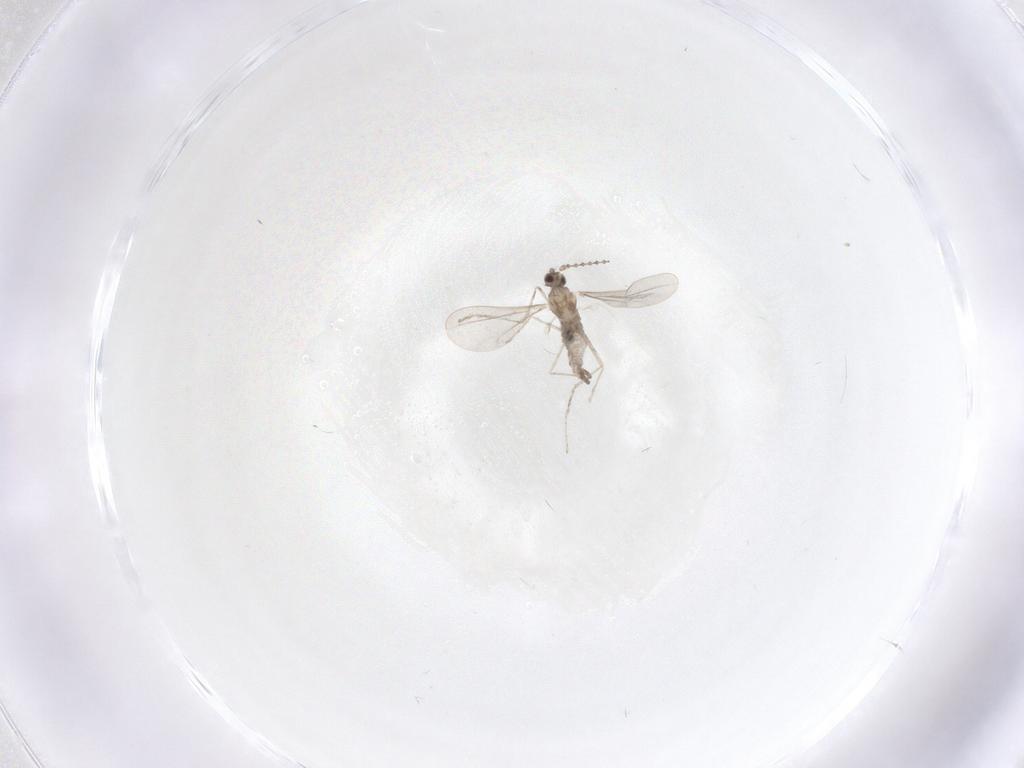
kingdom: Animalia
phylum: Arthropoda
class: Insecta
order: Diptera
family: Cecidomyiidae
